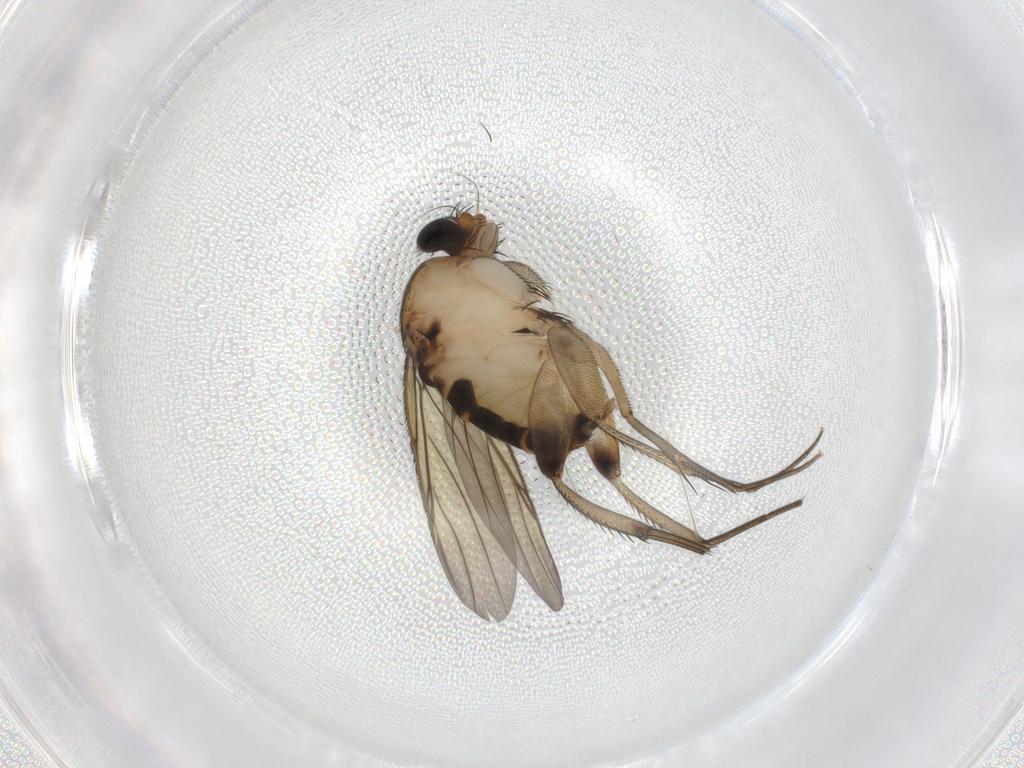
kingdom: Animalia
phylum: Arthropoda
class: Insecta
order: Diptera
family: Phoridae
